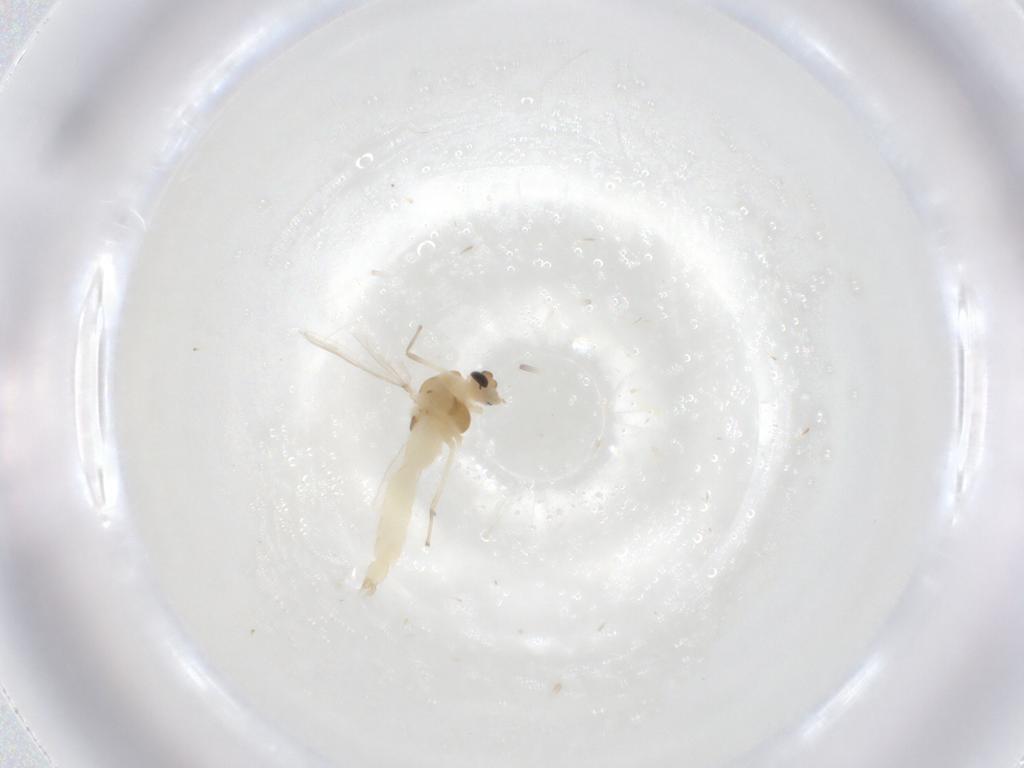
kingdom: Animalia
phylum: Arthropoda
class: Insecta
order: Diptera
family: Chironomidae
